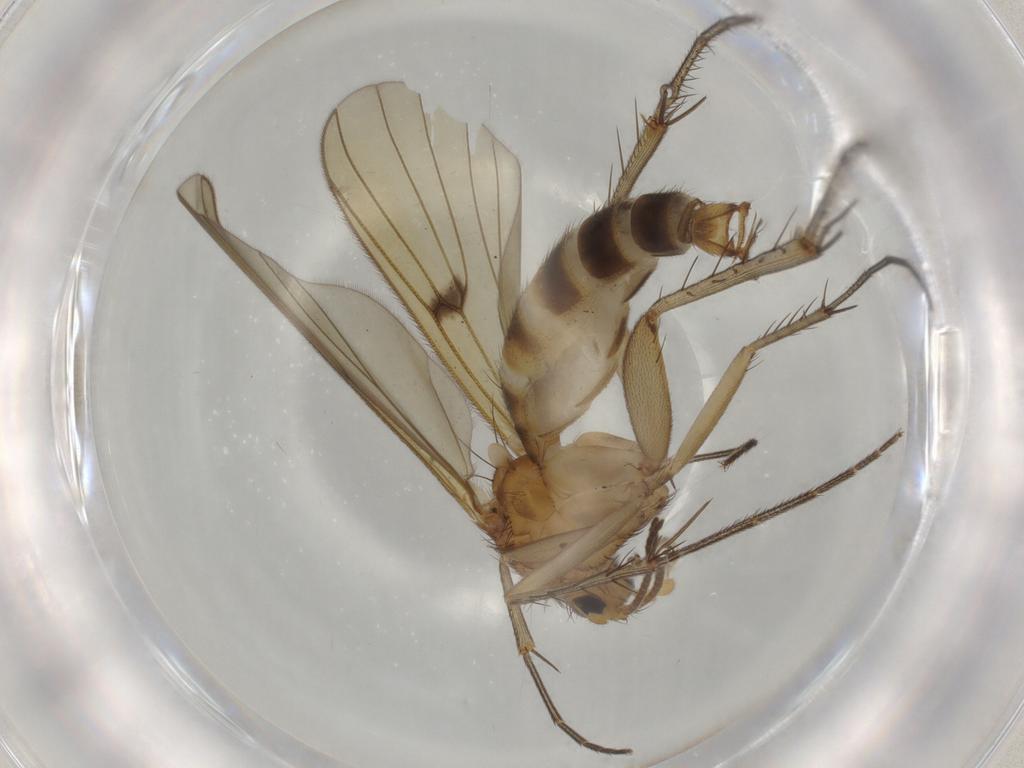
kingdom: Animalia
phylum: Arthropoda
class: Insecta
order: Diptera
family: Sciaridae
